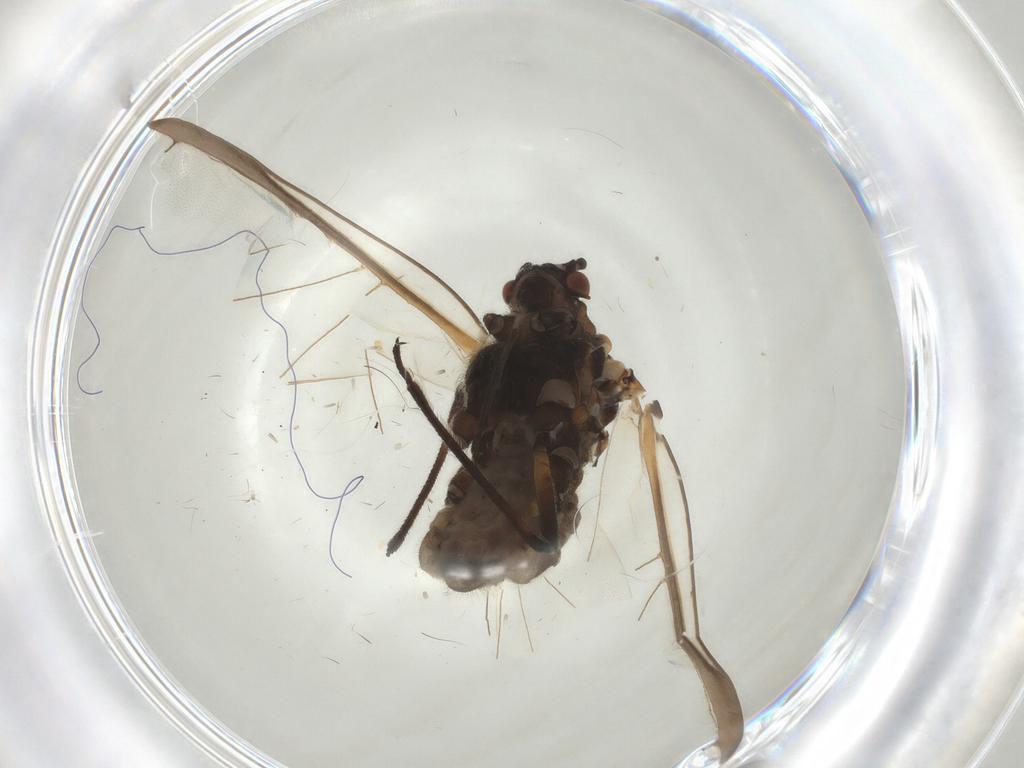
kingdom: Animalia
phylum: Arthropoda
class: Insecta
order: Hemiptera
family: Lachnidae
